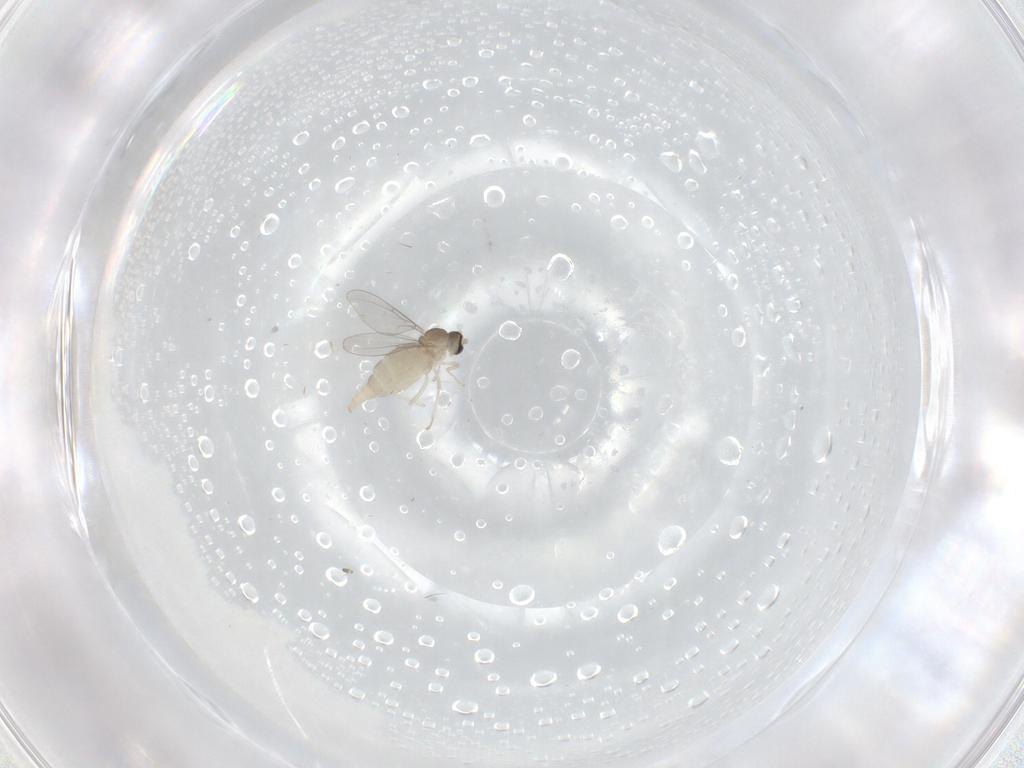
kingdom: Animalia
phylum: Arthropoda
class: Insecta
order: Diptera
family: Cecidomyiidae
